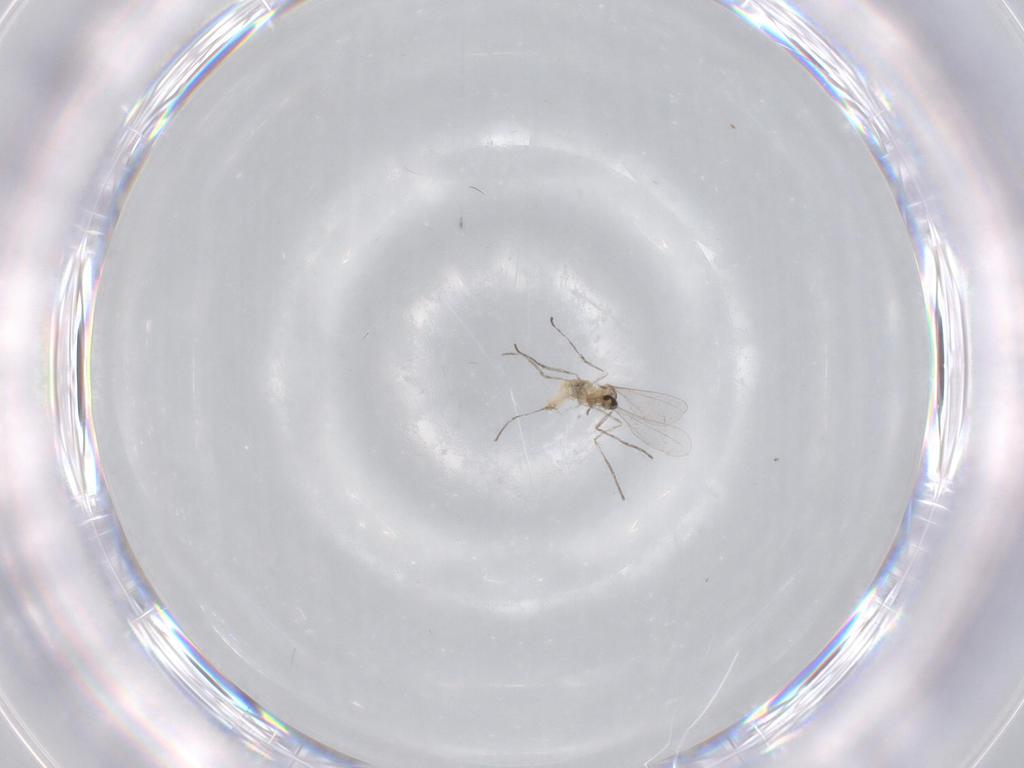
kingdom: Animalia
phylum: Arthropoda
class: Insecta
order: Diptera
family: Cecidomyiidae
